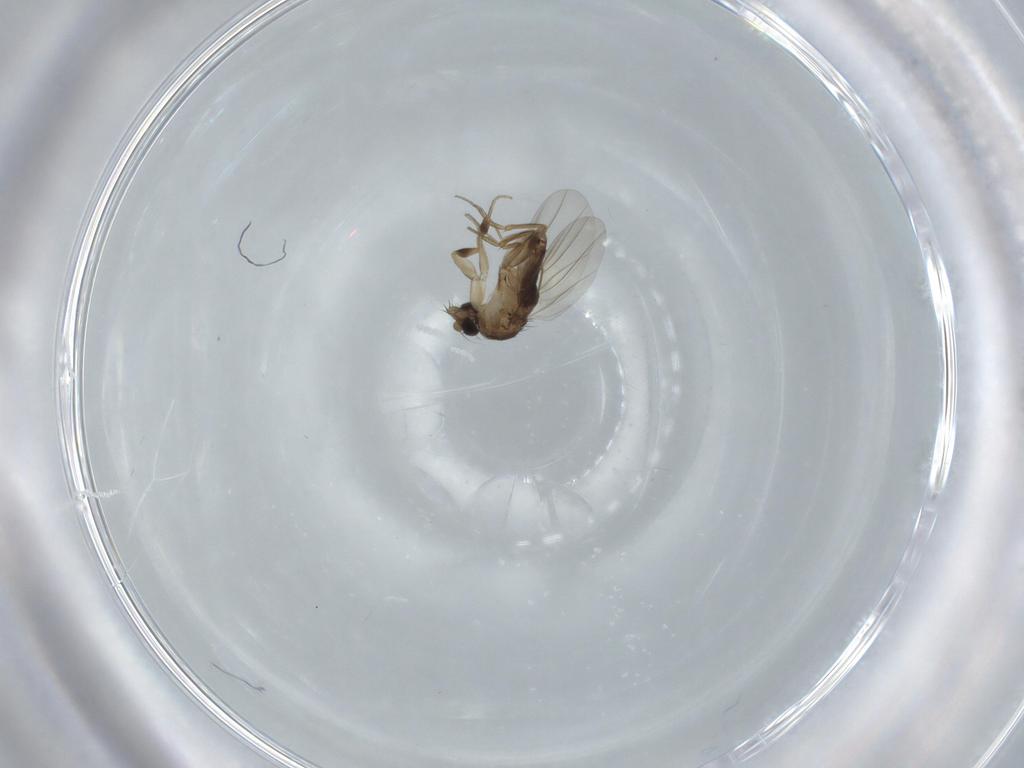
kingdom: Animalia
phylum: Arthropoda
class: Insecta
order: Diptera
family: Phoridae
